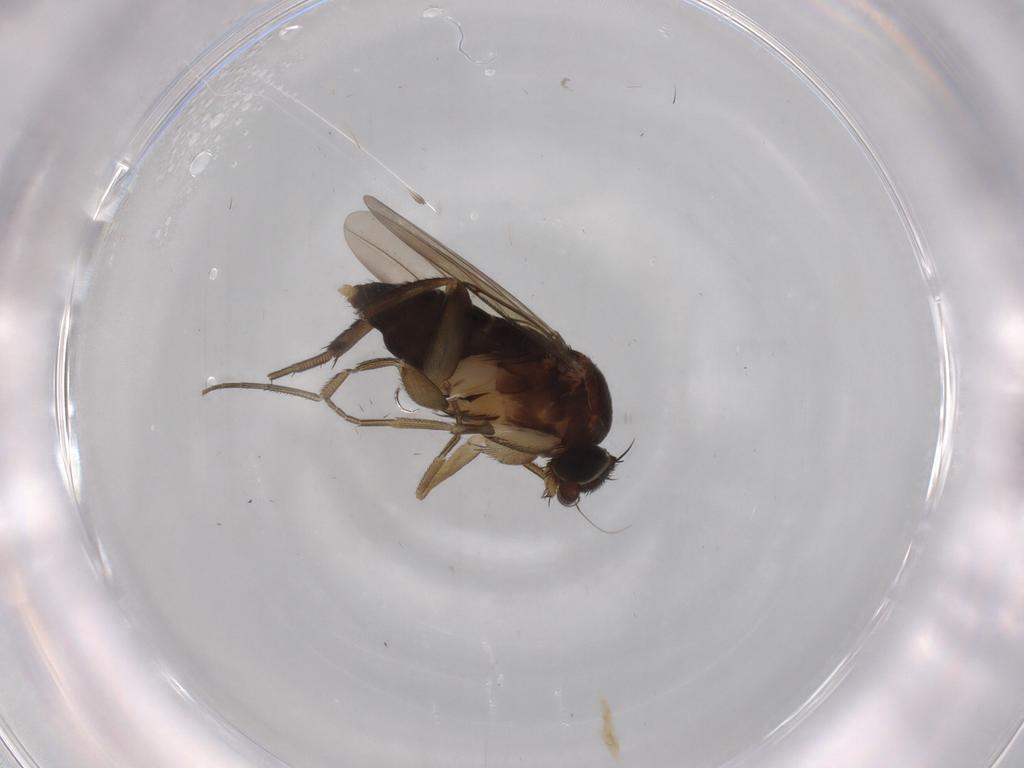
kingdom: Animalia
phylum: Arthropoda
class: Insecta
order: Diptera
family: Phoridae
